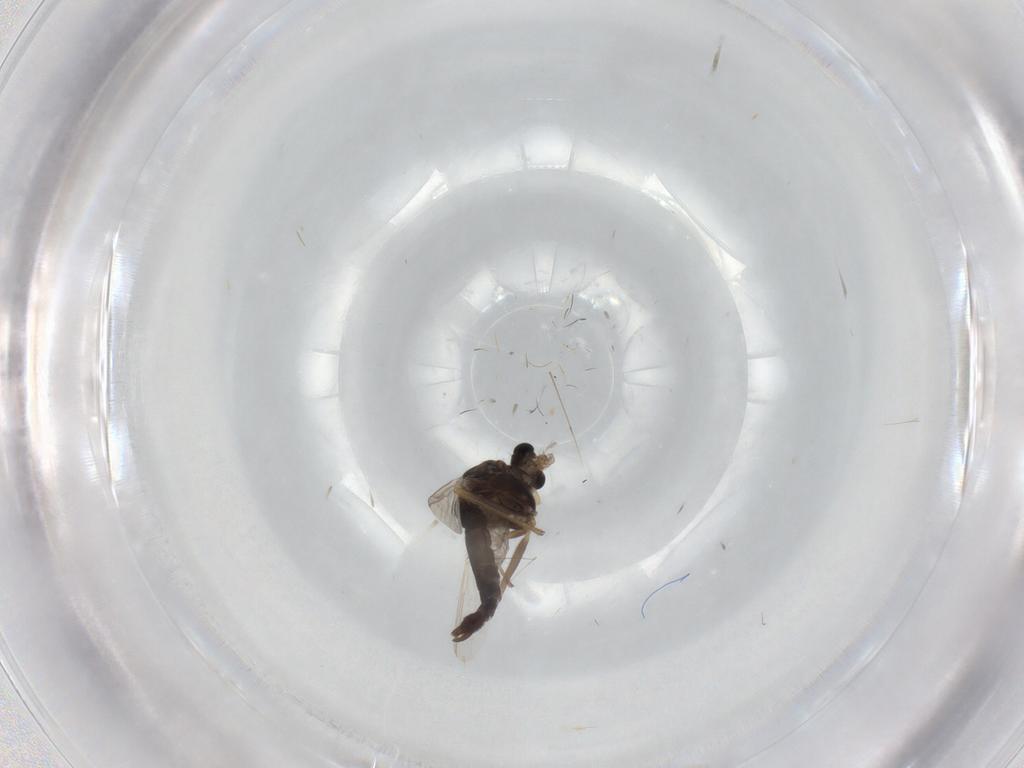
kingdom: Animalia
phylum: Arthropoda
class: Insecta
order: Diptera
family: Chironomidae
